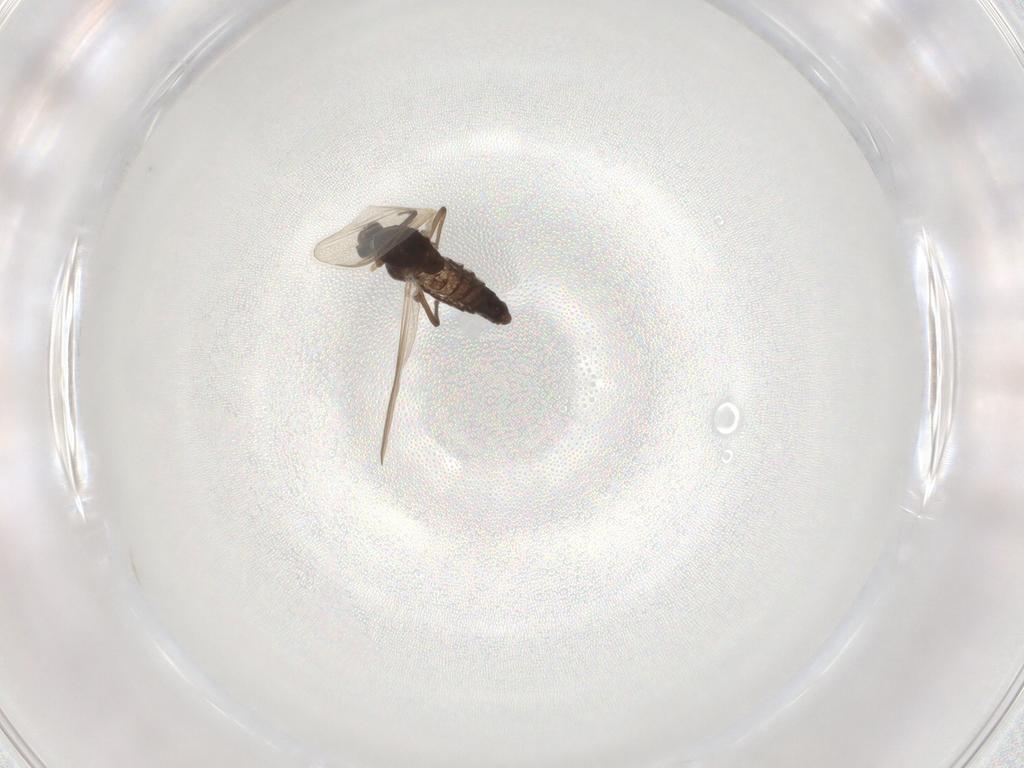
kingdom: Animalia
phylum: Arthropoda
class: Insecta
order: Diptera
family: Chironomidae
